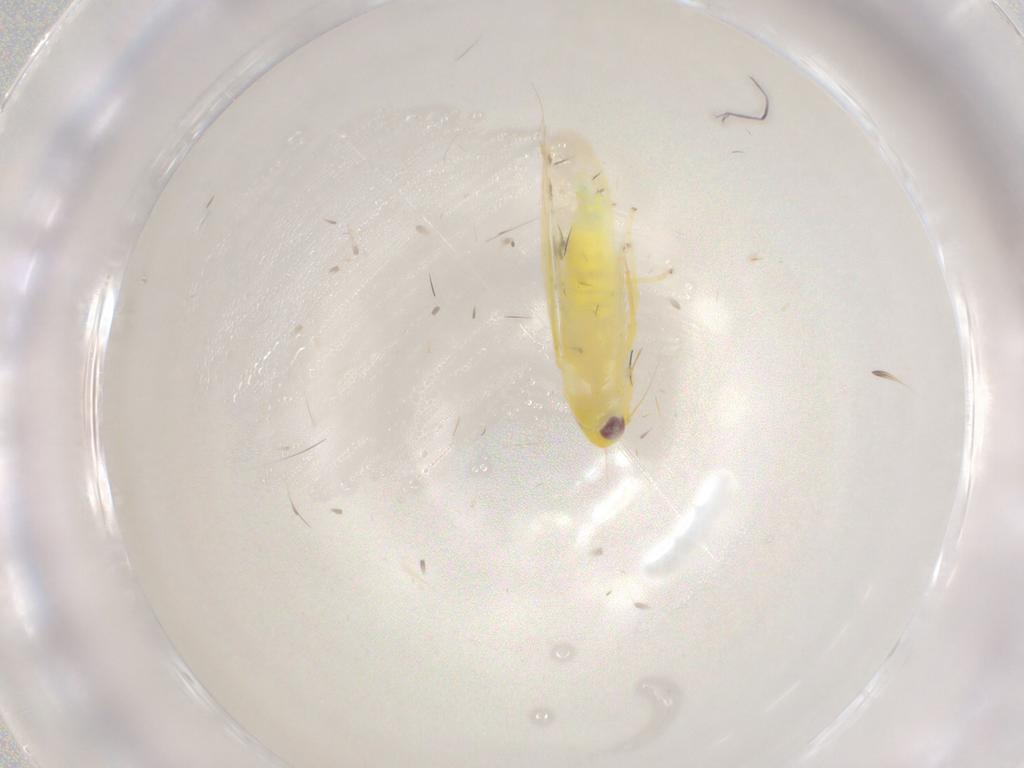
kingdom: Animalia
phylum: Arthropoda
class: Insecta
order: Hemiptera
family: Cicadellidae
